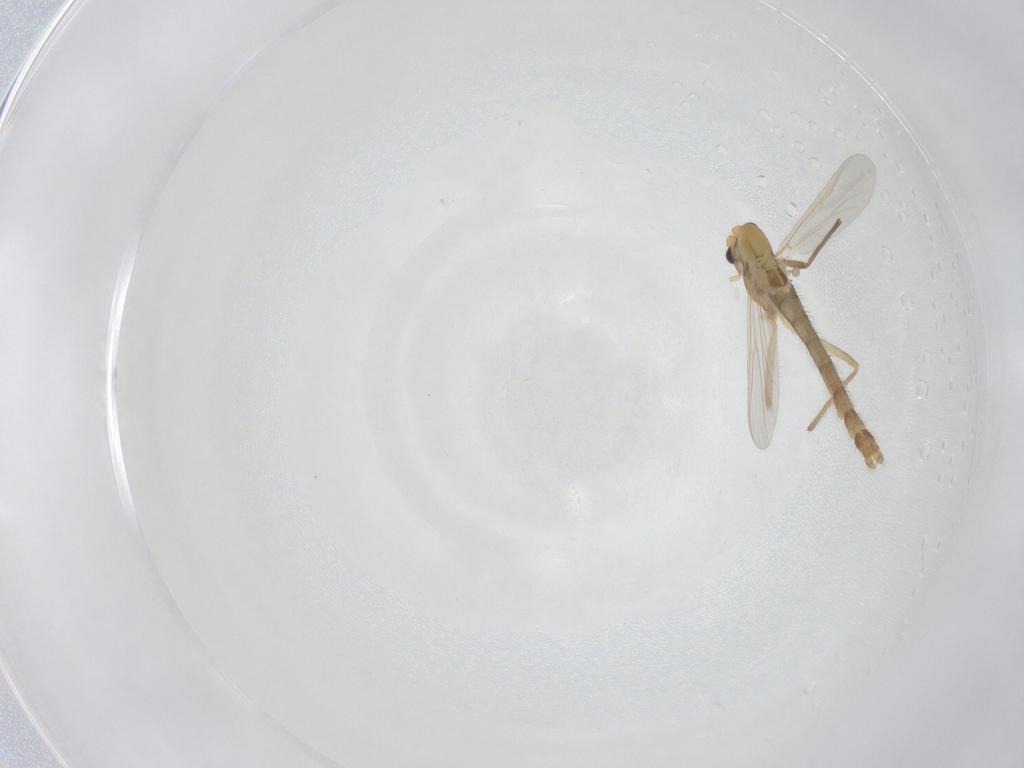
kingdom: Animalia
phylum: Arthropoda
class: Insecta
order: Diptera
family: Chironomidae
